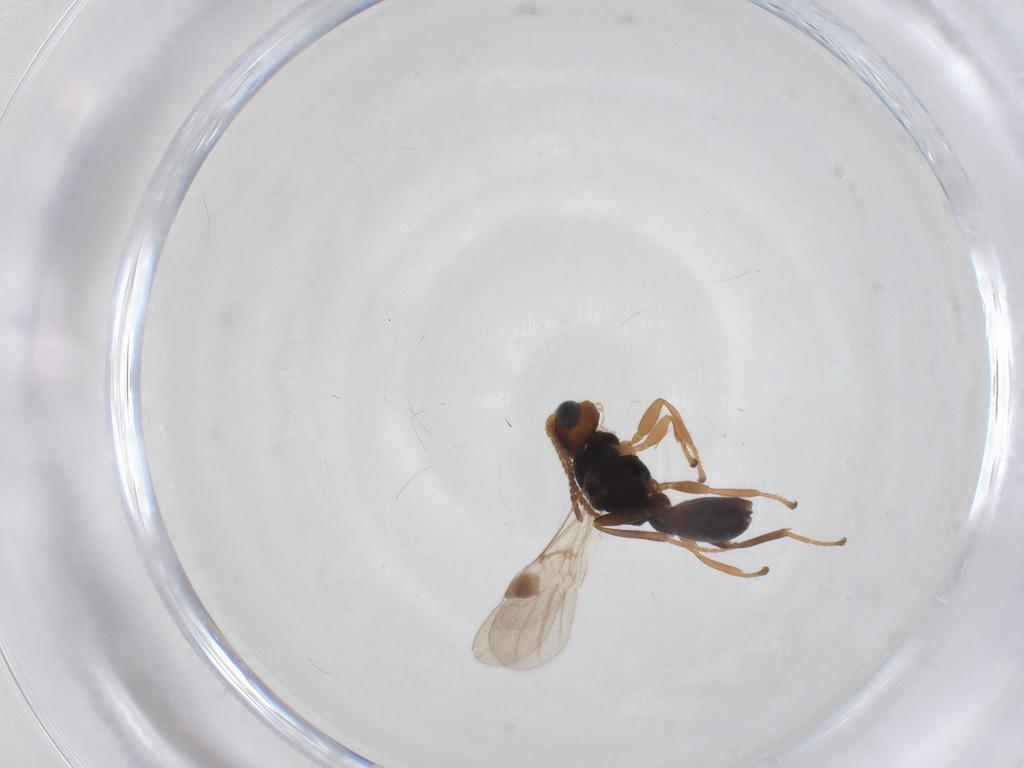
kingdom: Animalia
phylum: Arthropoda
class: Insecta
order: Hymenoptera
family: Braconidae
